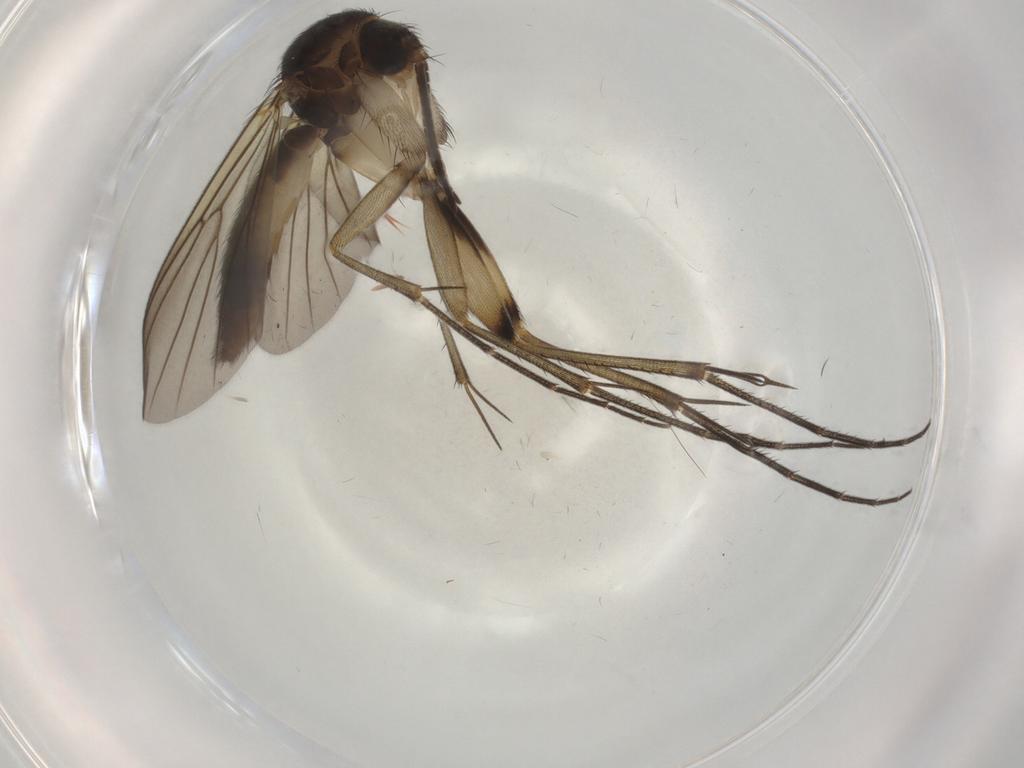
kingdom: Animalia
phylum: Arthropoda
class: Insecta
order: Diptera
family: Mycetophilidae
